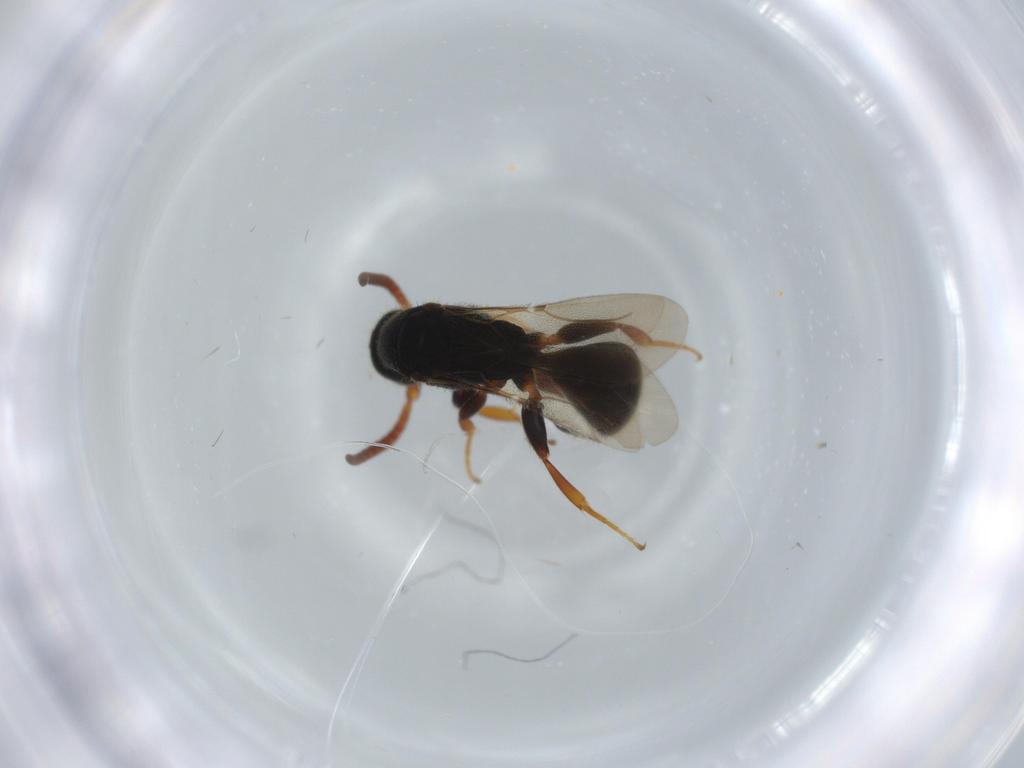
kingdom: Animalia
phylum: Arthropoda
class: Insecta
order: Hymenoptera
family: Bethylidae
